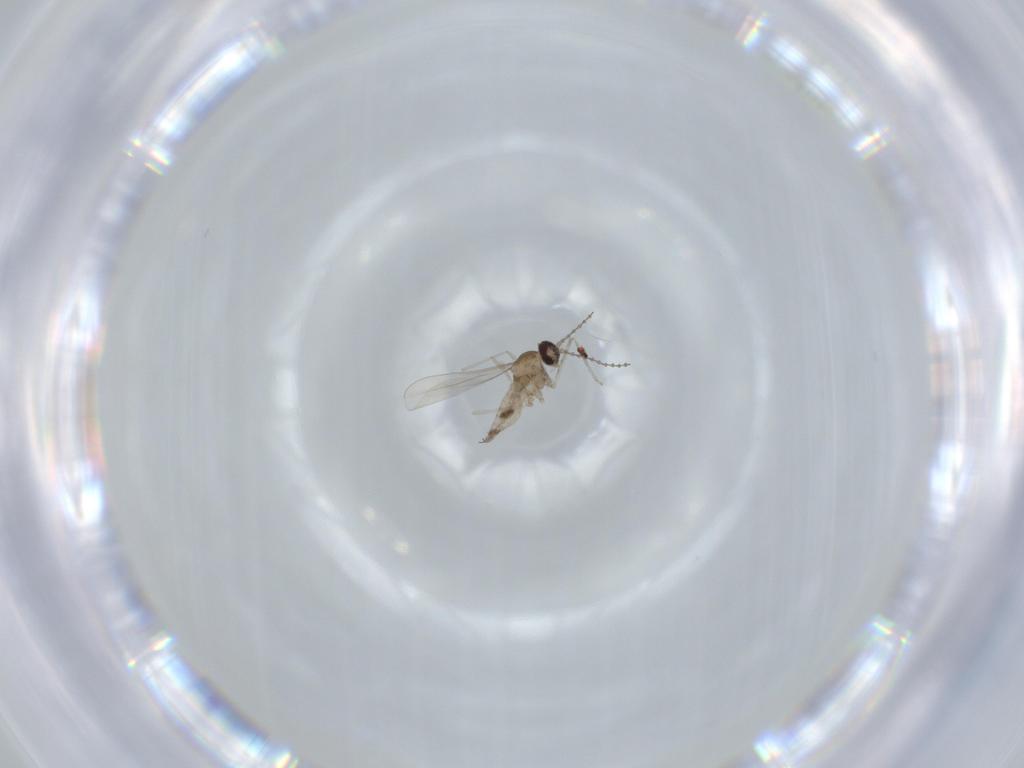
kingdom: Animalia
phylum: Arthropoda
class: Insecta
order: Diptera
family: Cecidomyiidae
